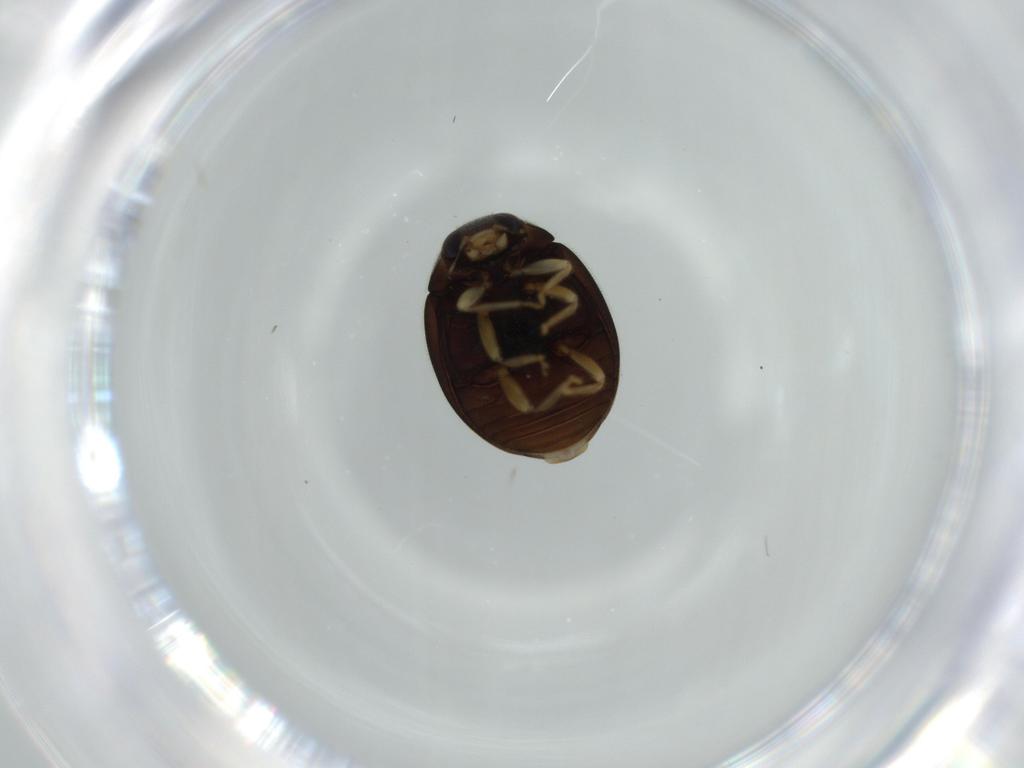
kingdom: Animalia
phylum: Arthropoda
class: Insecta
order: Coleoptera
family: Coccinellidae
